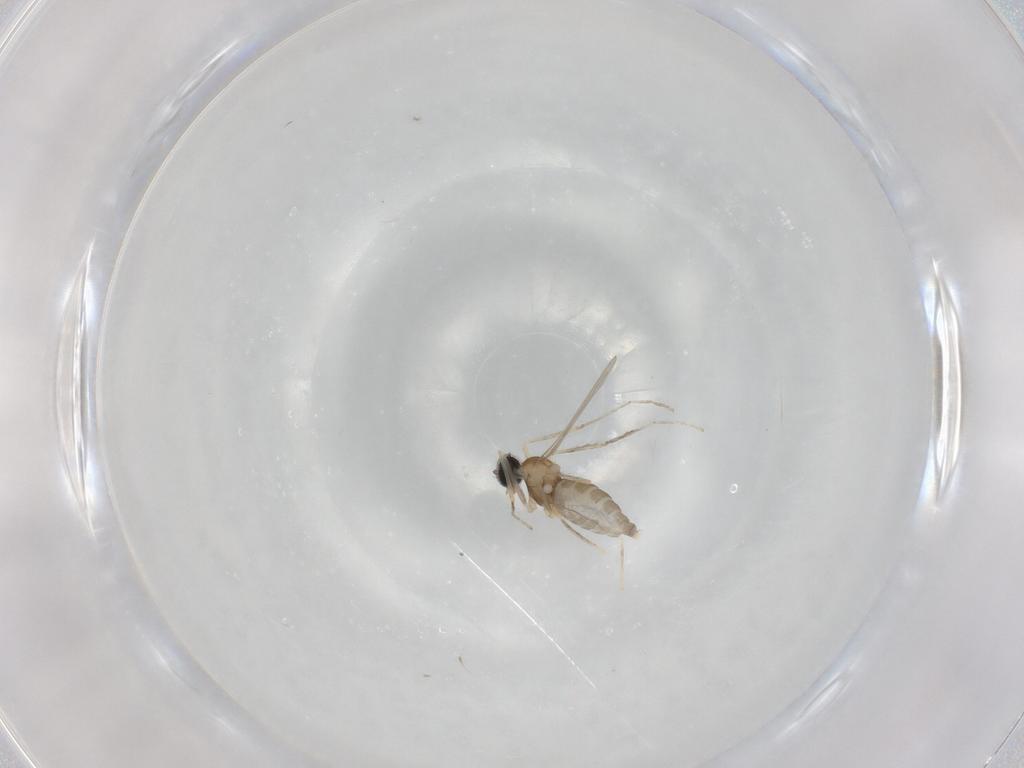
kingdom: Animalia
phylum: Arthropoda
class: Insecta
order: Diptera
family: Cecidomyiidae
